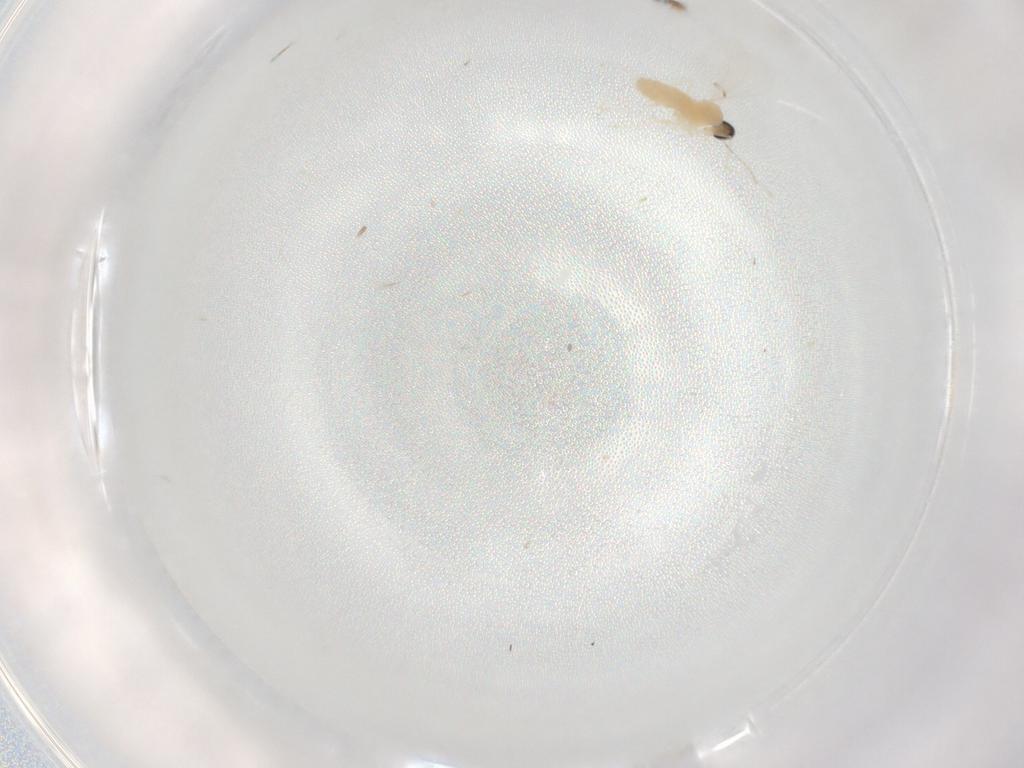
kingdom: Animalia
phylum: Arthropoda
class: Insecta
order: Diptera
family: Cecidomyiidae
